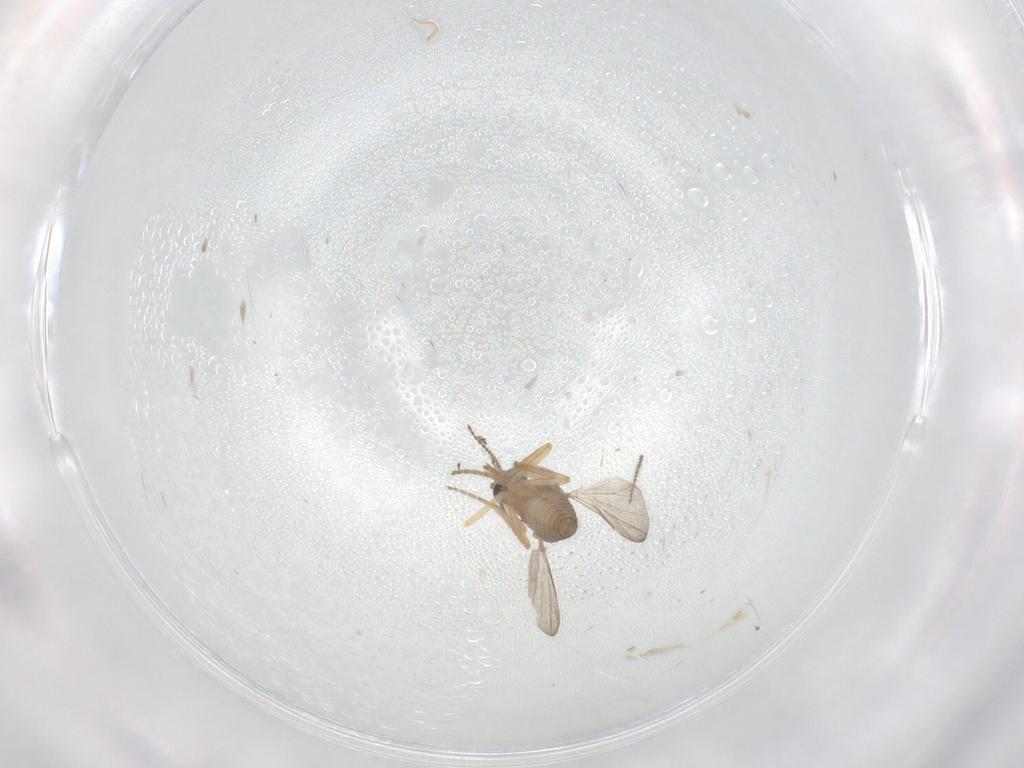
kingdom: Animalia
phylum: Arthropoda
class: Insecta
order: Diptera
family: Ceratopogonidae
